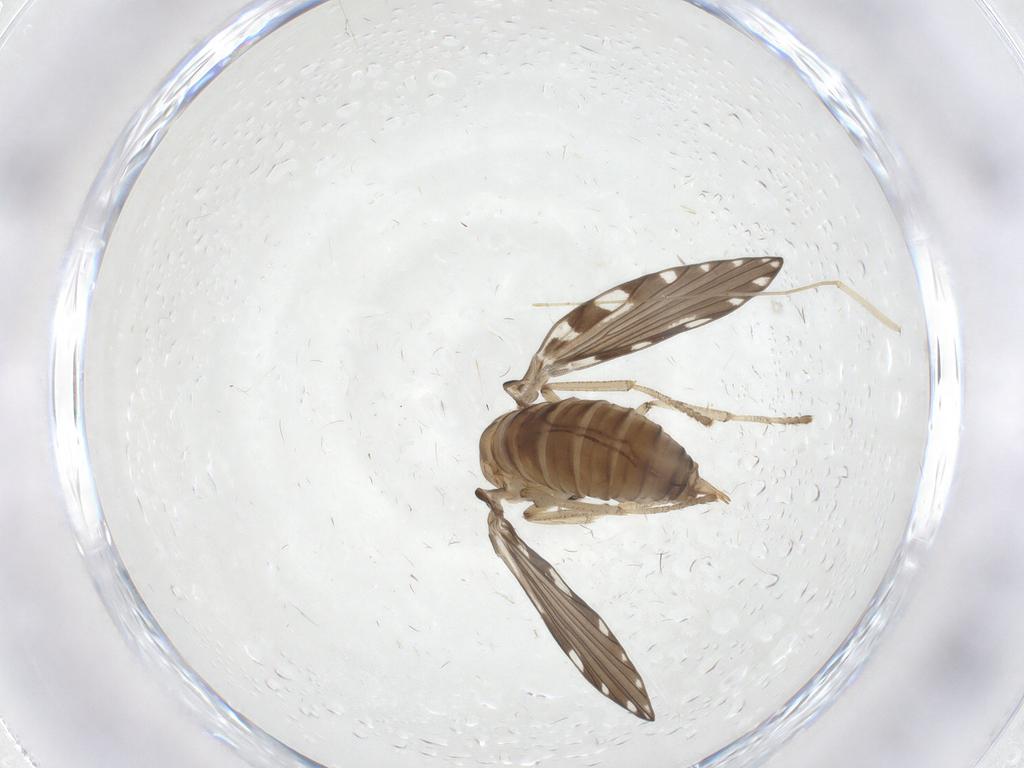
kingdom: Animalia
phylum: Arthropoda
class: Insecta
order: Diptera
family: Psychodidae
